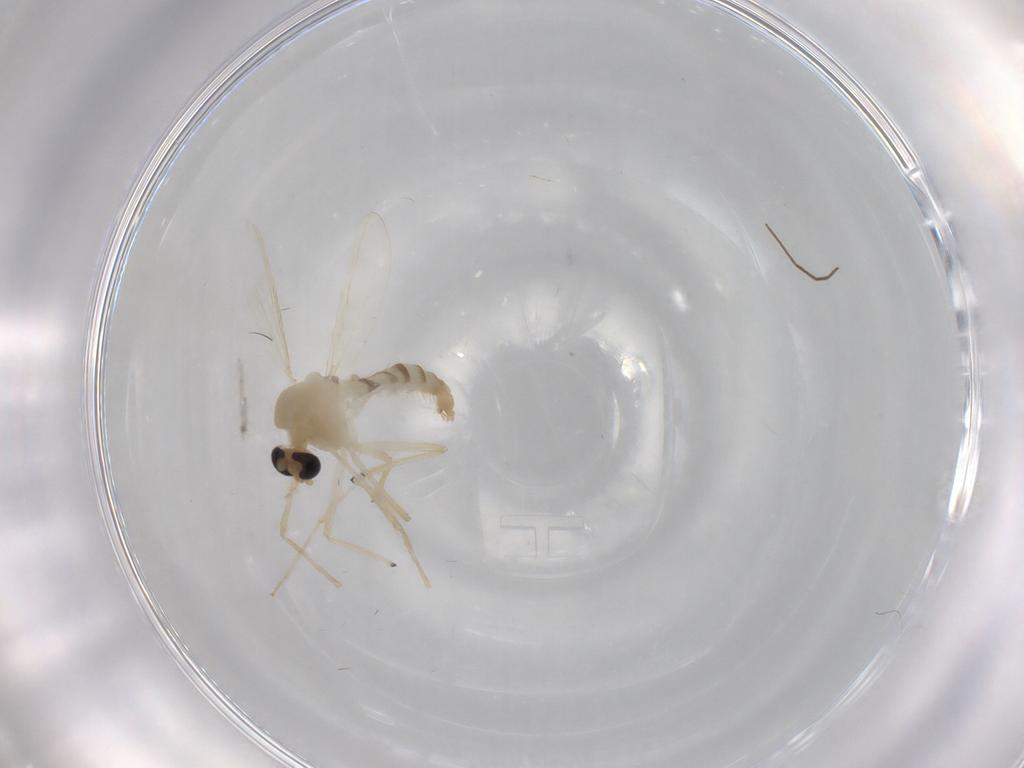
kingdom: Animalia
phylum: Arthropoda
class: Insecta
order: Diptera
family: Chironomidae
